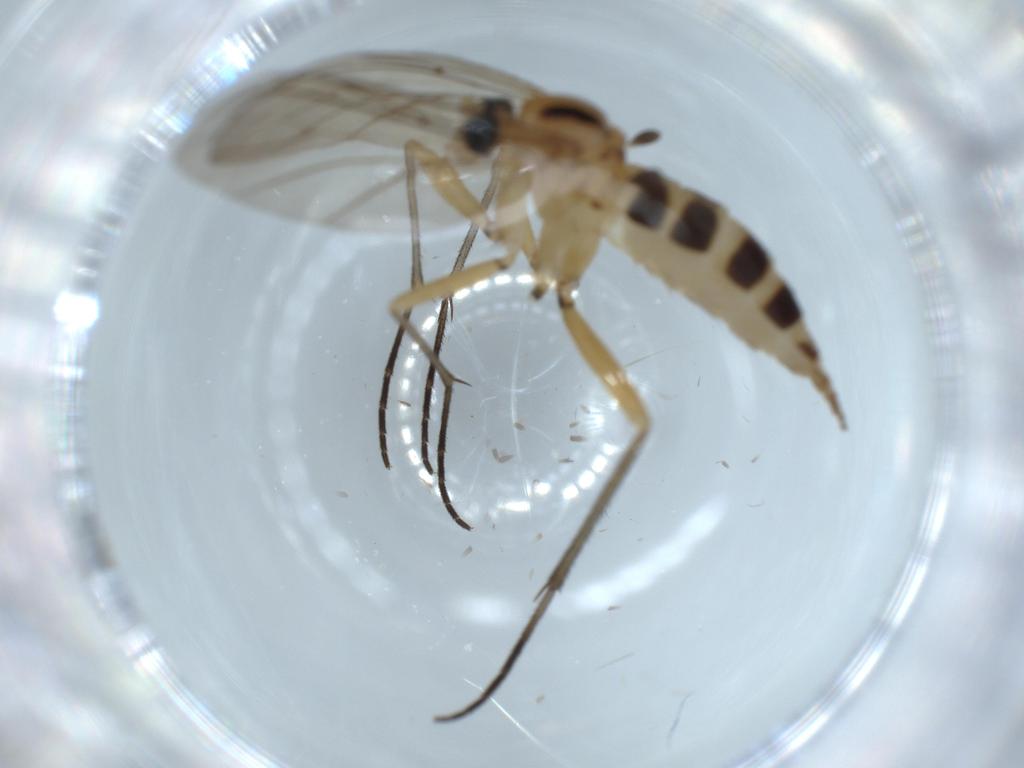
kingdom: Animalia
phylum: Arthropoda
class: Insecta
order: Diptera
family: Sciaridae
